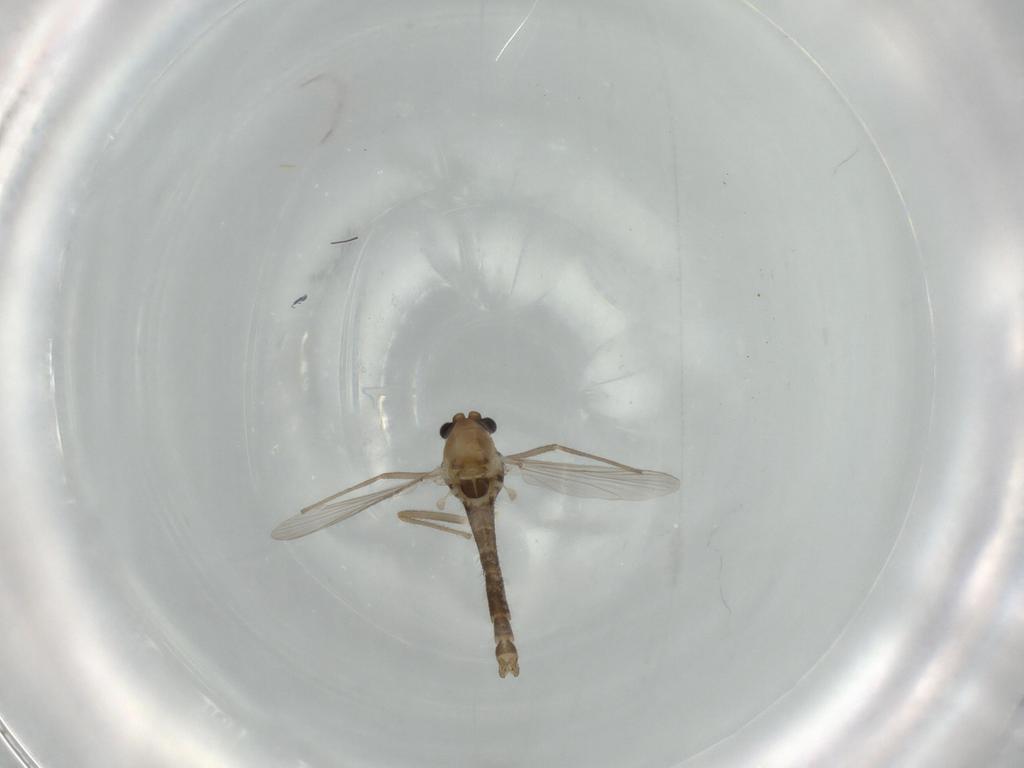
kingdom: Animalia
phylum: Arthropoda
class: Insecta
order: Diptera
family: Chironomidae
